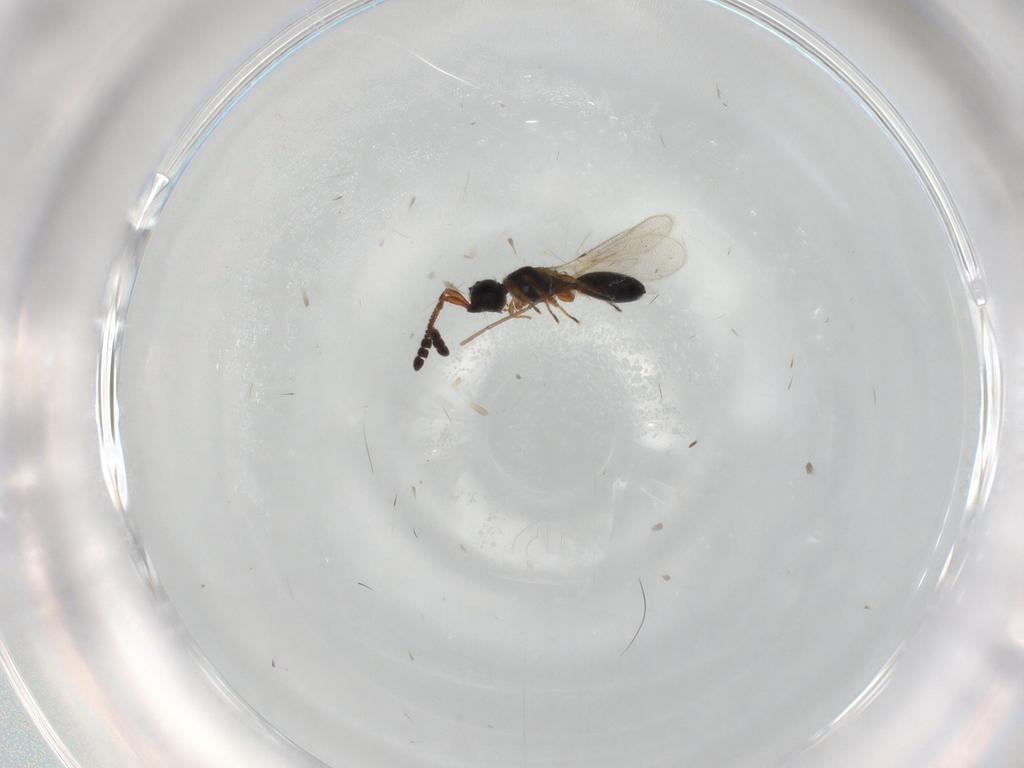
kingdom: Animalia
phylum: Arthropoda
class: Insecta
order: Hymenoptera
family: Diapriidae
